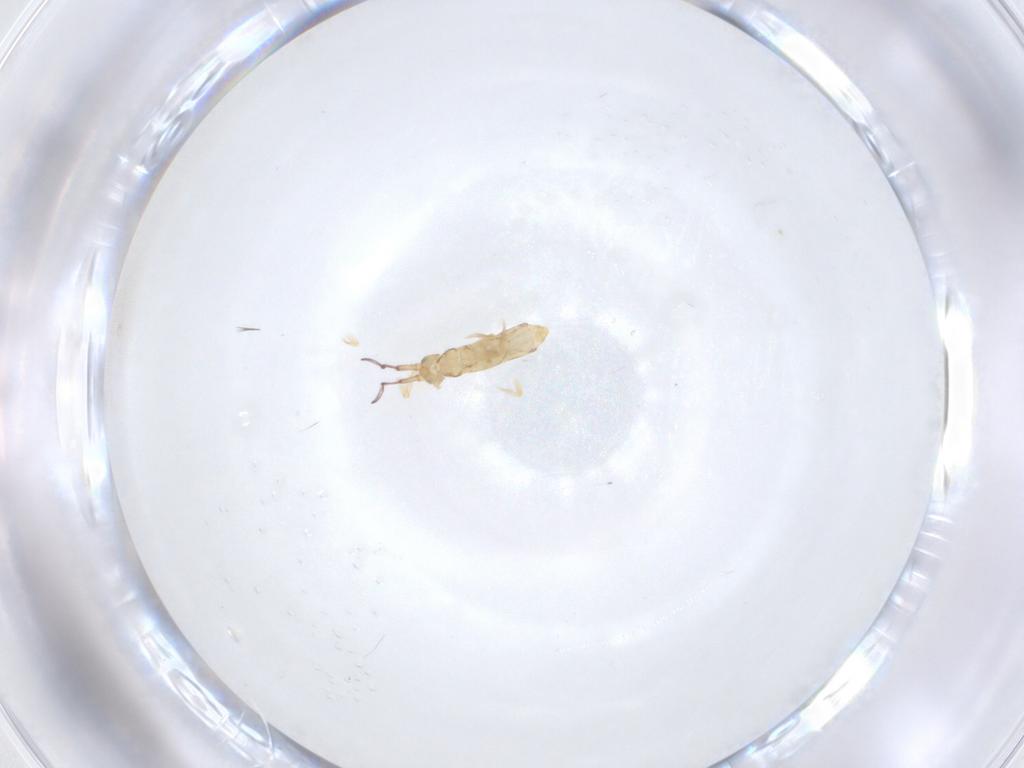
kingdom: Animalia
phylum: Arthropoda
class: Collembola
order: Entomobryomorpha
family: Entomobryidae
